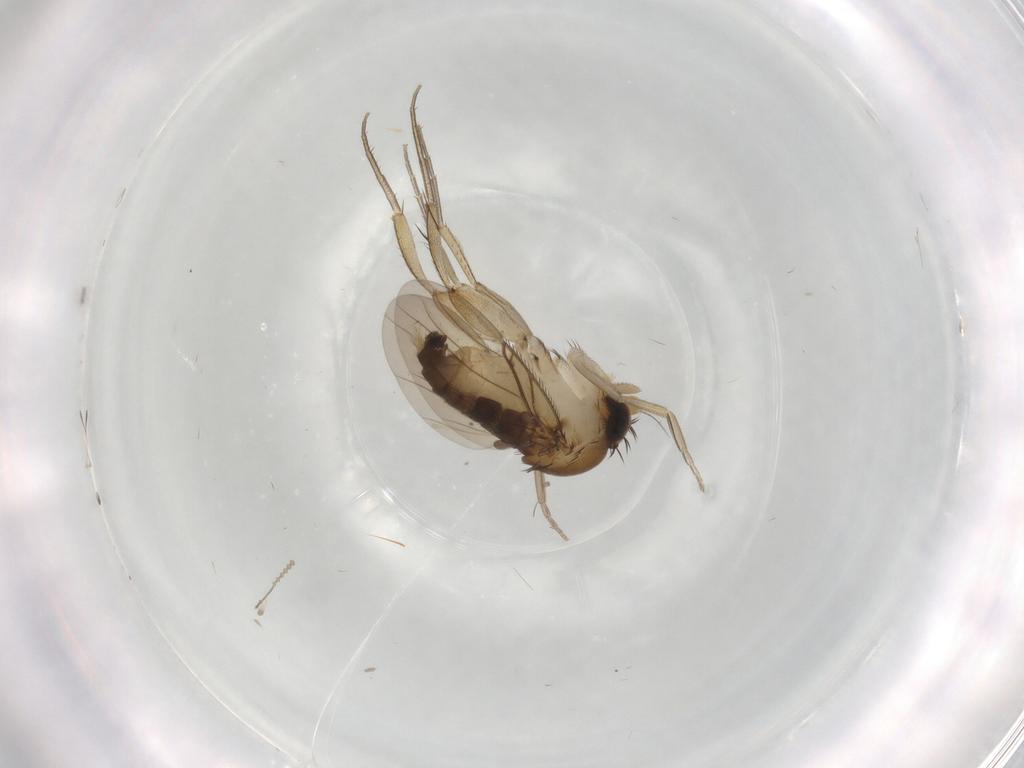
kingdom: Animalia
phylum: Arthropoda
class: Insecta
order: Diptera
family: Phoridae
